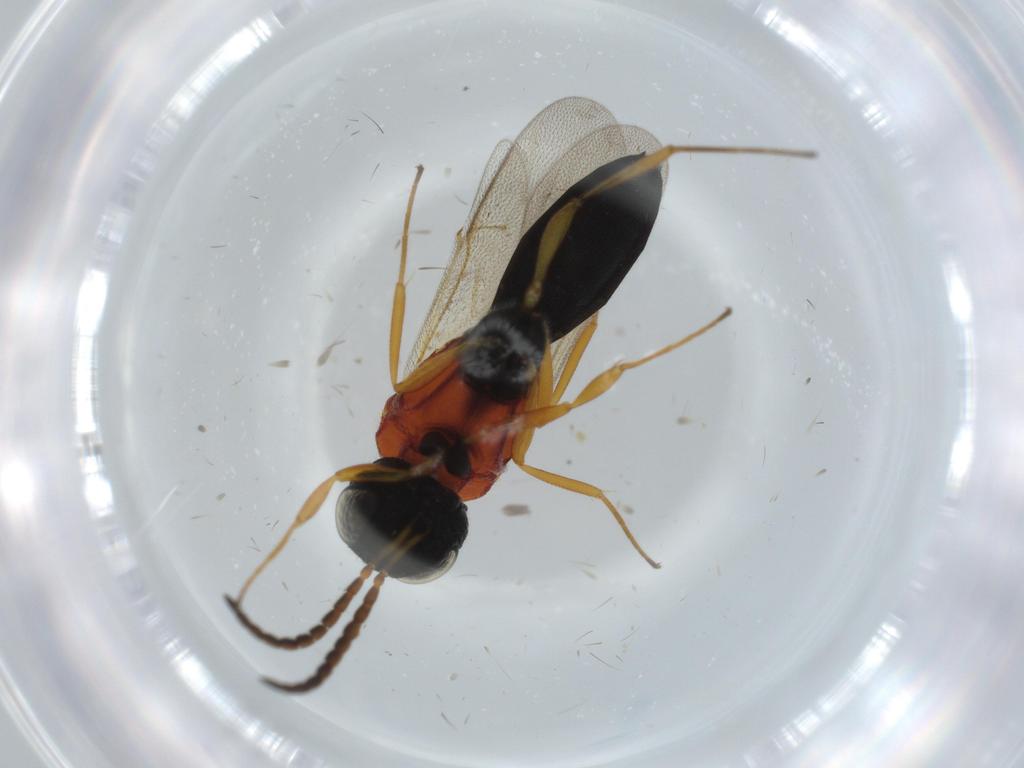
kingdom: Animalia
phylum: Arthropoda
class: Insecta
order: Hymenoptera
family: Scelionidae
